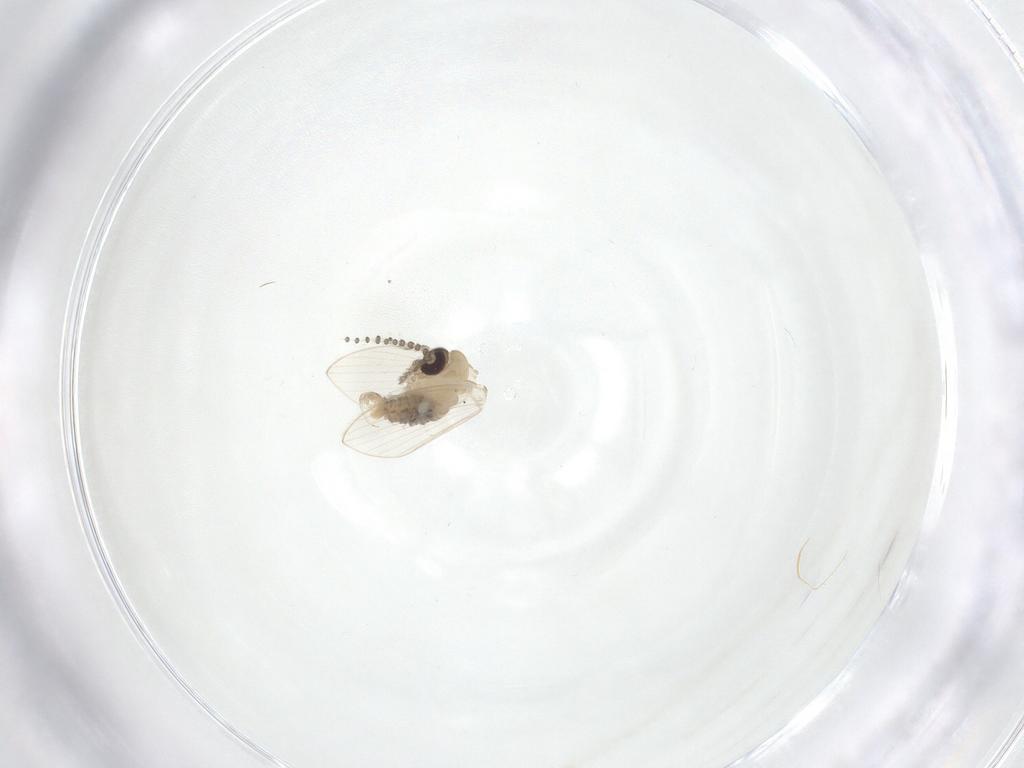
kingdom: Animalia
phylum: Arthropoda
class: Insecta
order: Diptera
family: Psychodidae
